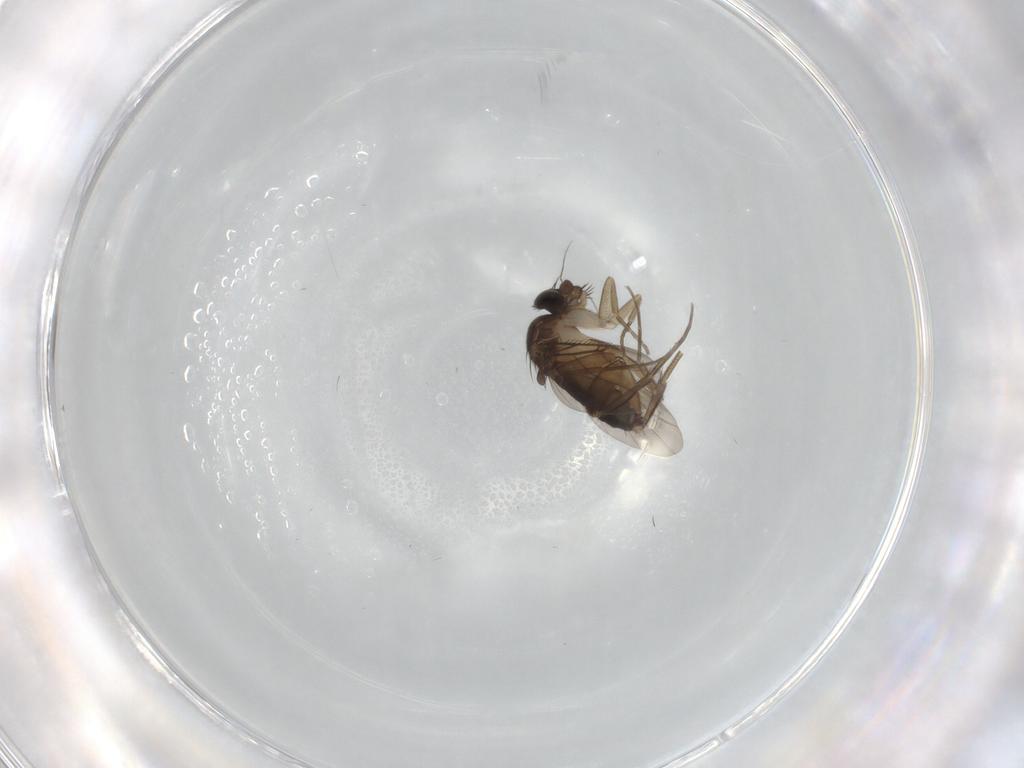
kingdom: Animalia
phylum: Arthropoda
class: Insecta
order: Diptera
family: Phoridae
